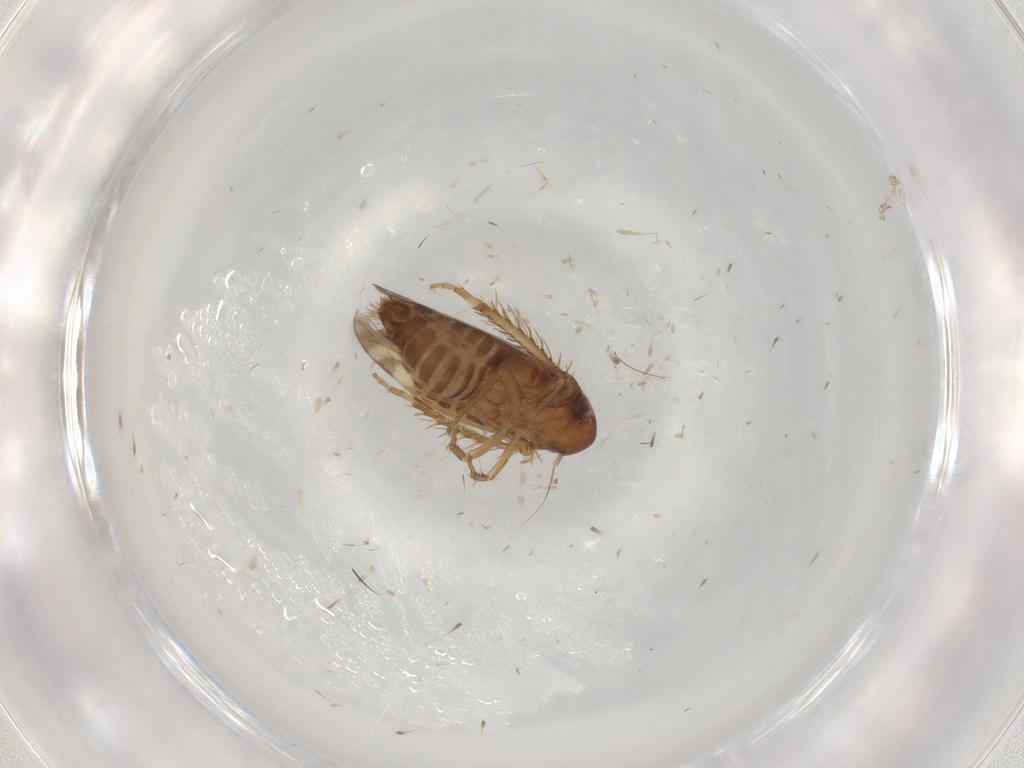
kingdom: Animalia
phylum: Arthropoda
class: Insecta
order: Hemiptera
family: Cicadellidae
